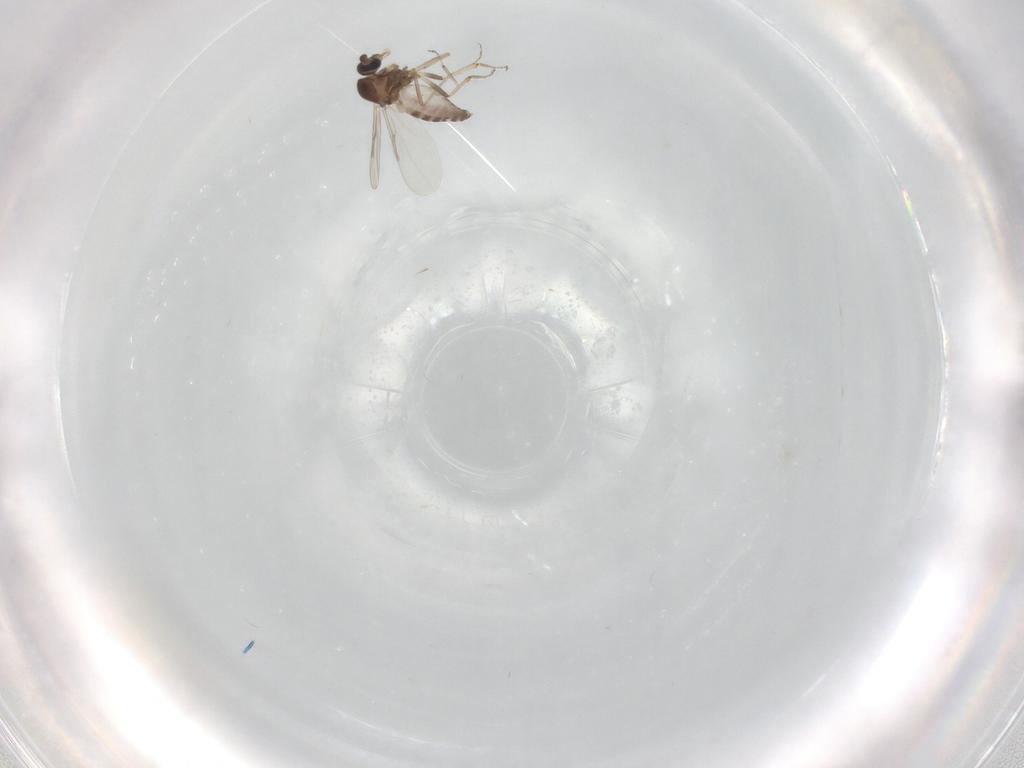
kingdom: Animalia
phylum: Arthropoda
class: Insecta
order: Diptera
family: Ceratopogonidae
